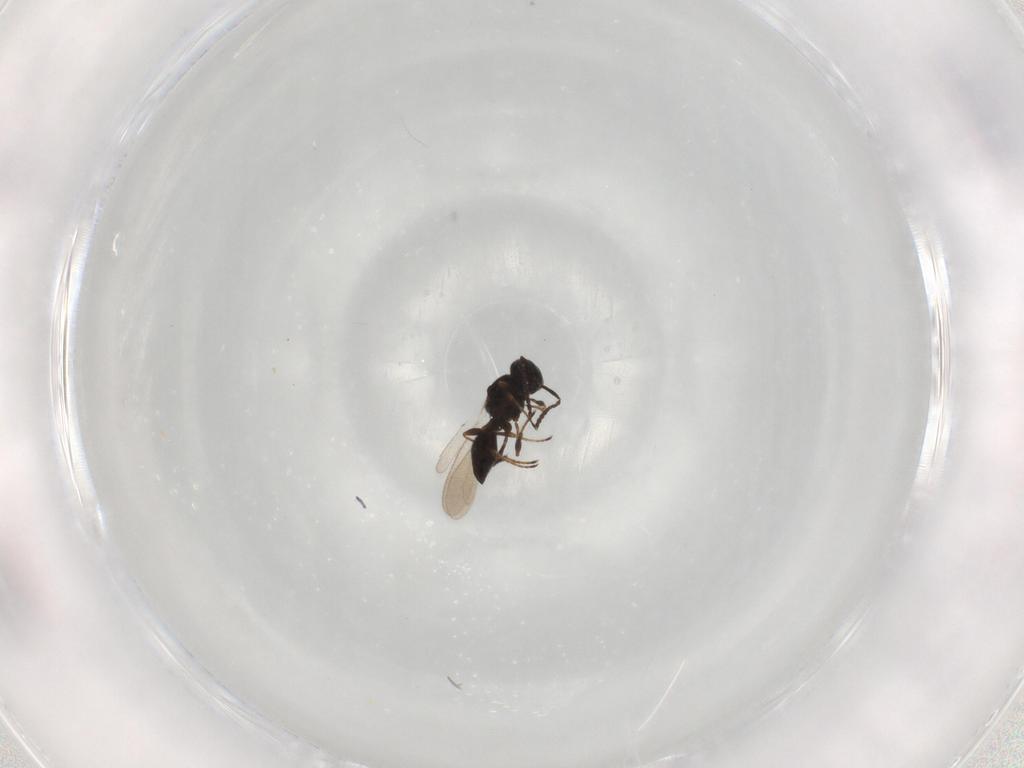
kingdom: Animalia
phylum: Arthropoda
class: Insecta
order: Hymenoptera
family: Platygastridae
